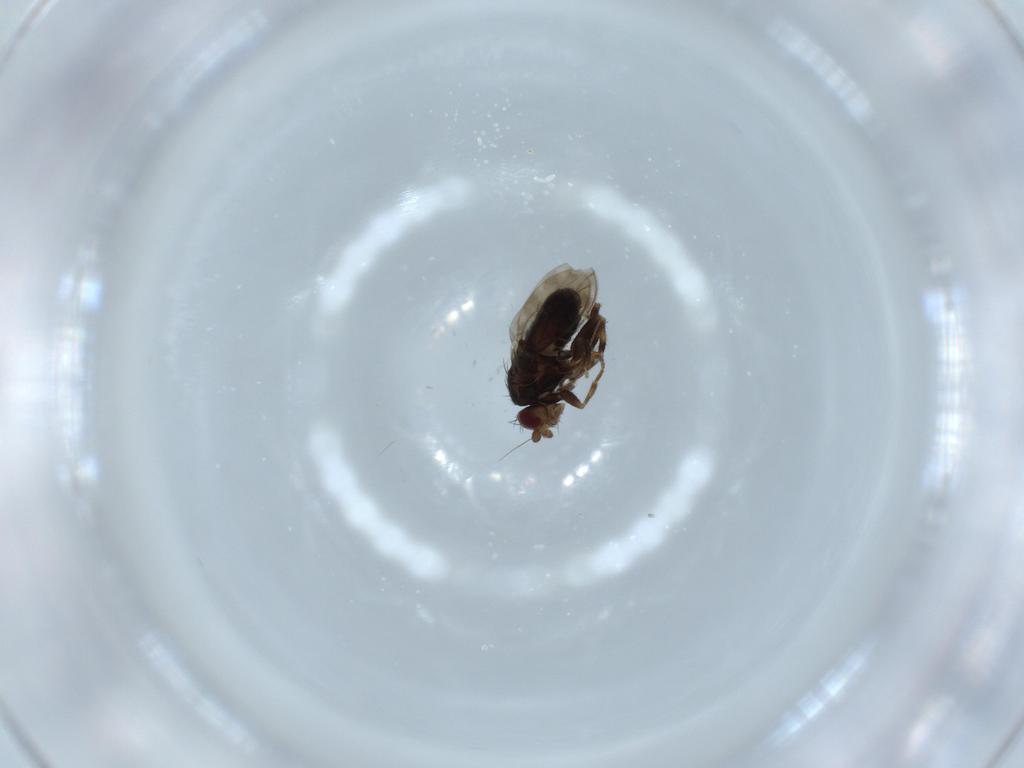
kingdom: Animalia
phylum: Arthropoda
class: Insecta
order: Diptera
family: Sphaeroceridae
